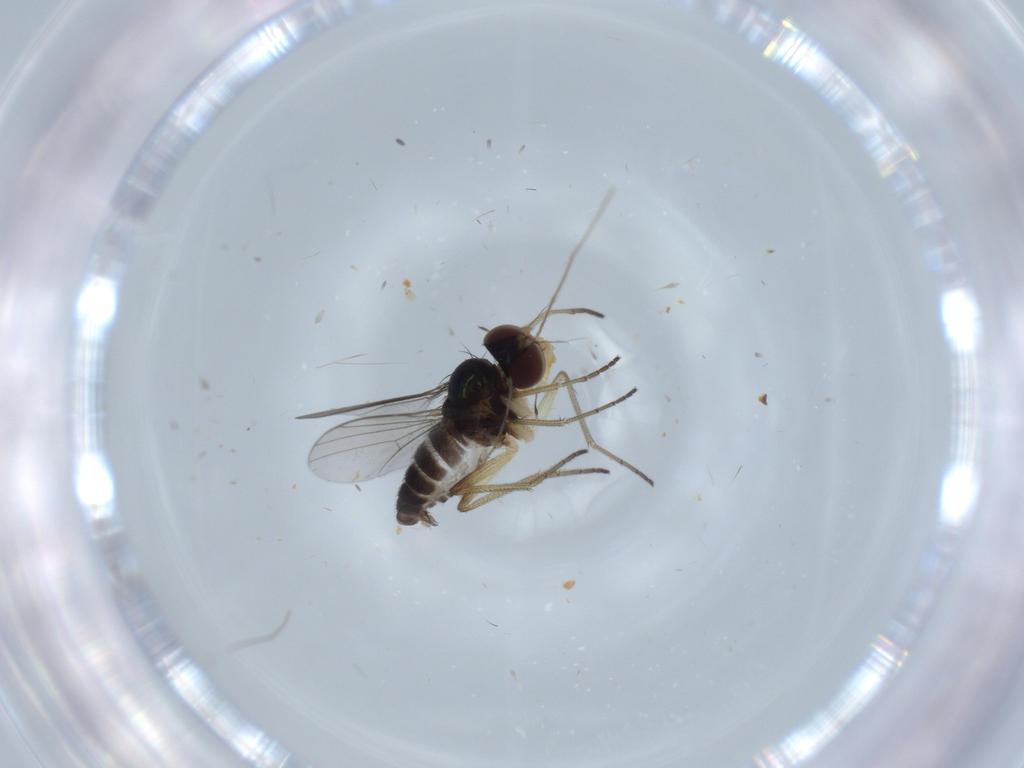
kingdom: Animalia
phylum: Arthropoda
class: Insecta
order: Diptera
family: Dolichopodidae
